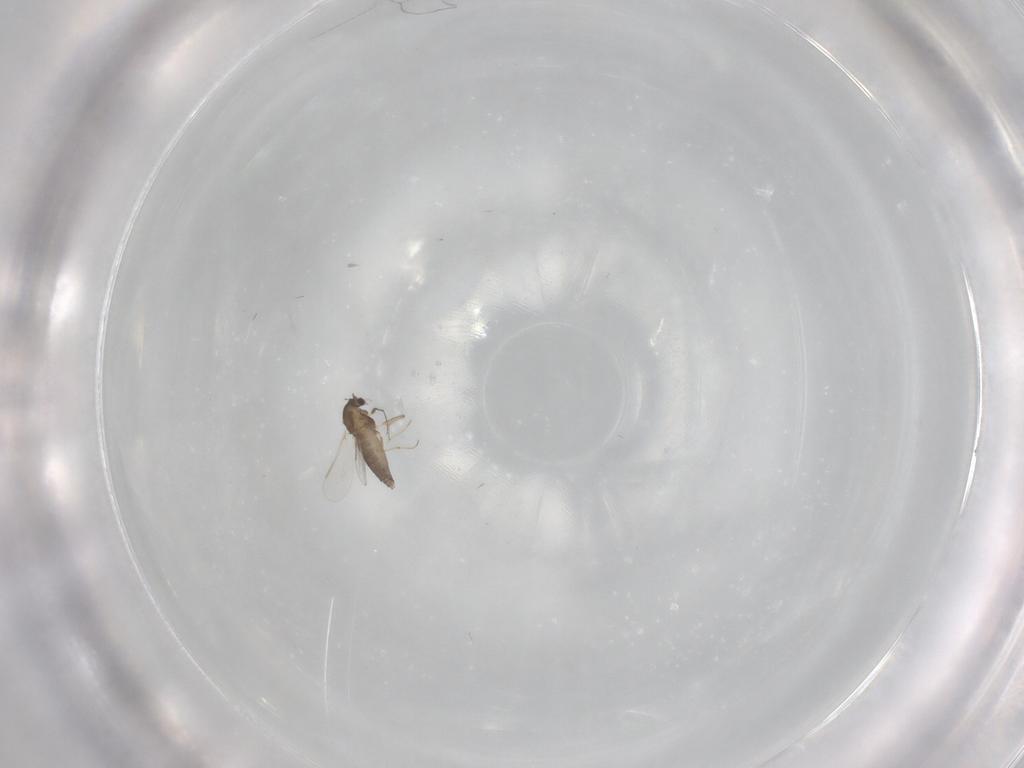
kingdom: Animalia
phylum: Arthropoda
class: Insecta
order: Diptera
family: Chironomidae
